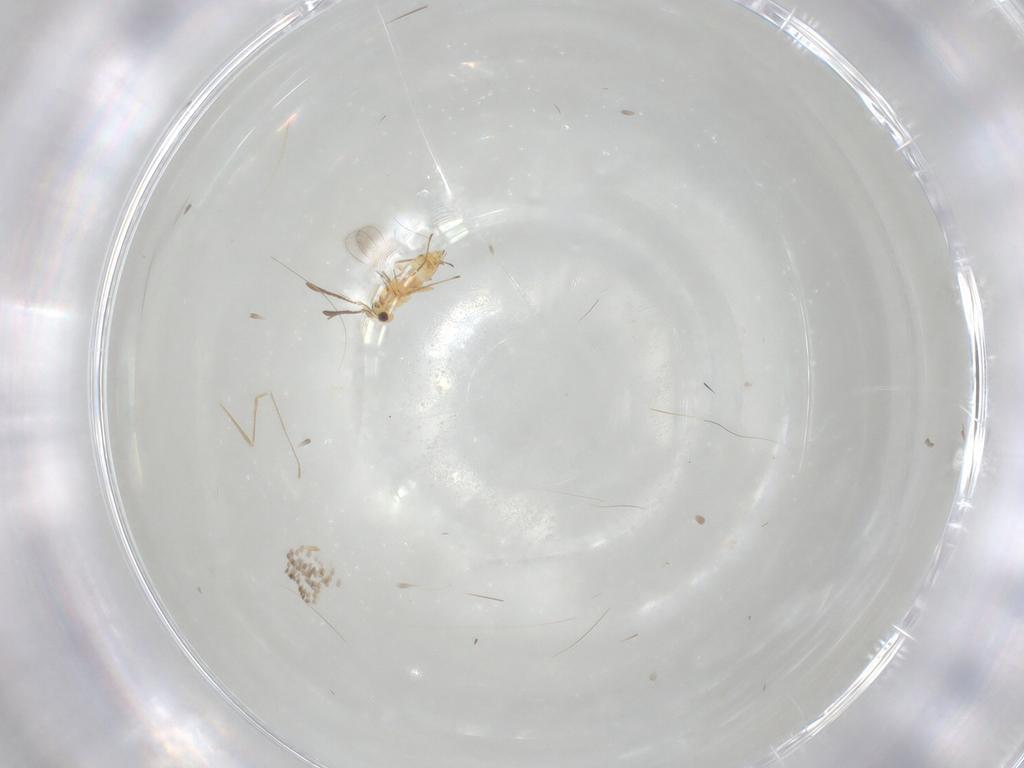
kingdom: Animalia
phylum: Arthropoda
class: Insecta
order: Hymenoptera
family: Mymaridae
